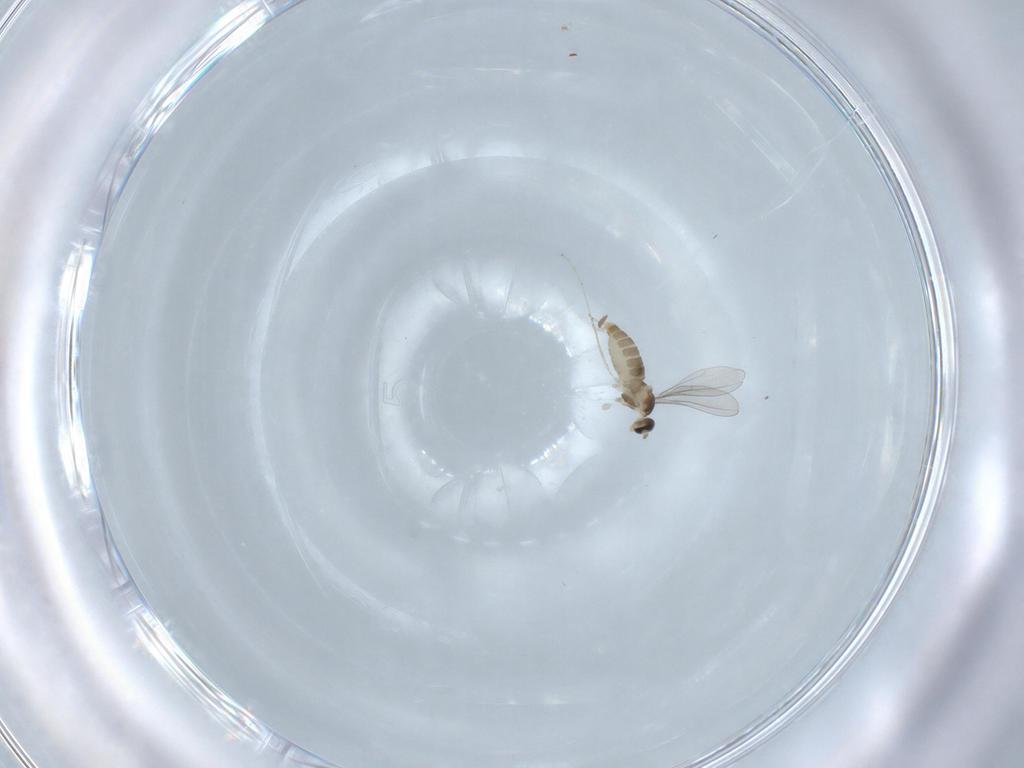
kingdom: Animalia
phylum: Arthropoda
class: Insecta
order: Diptera
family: Cecidomyiidae
